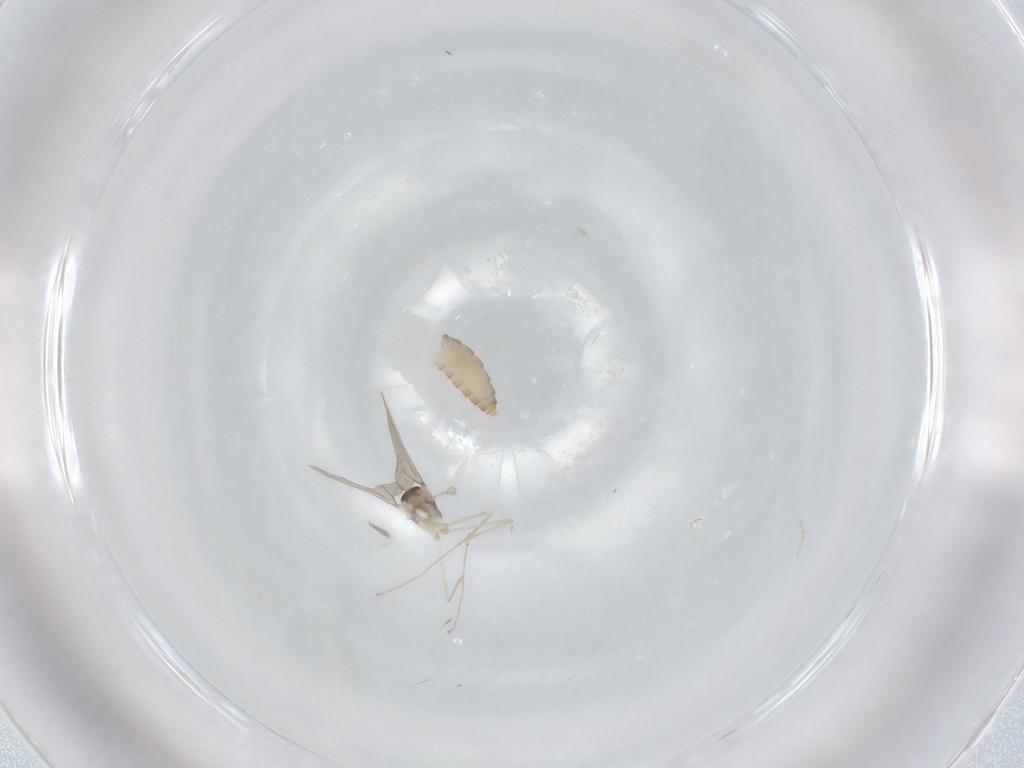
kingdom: Animalia
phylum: Arthropoda
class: Insecta
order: Diptera
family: Cecidomyiidae
